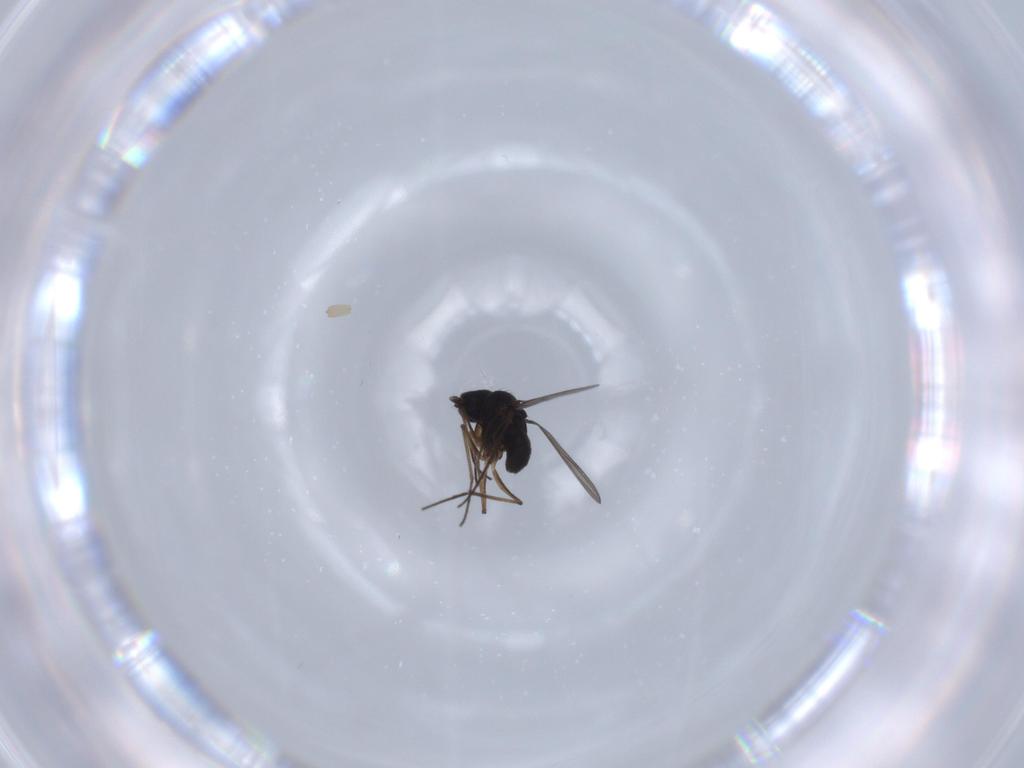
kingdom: Animalia
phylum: Arthropoda
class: Insecta
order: Diptera
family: Dolichopodidae
